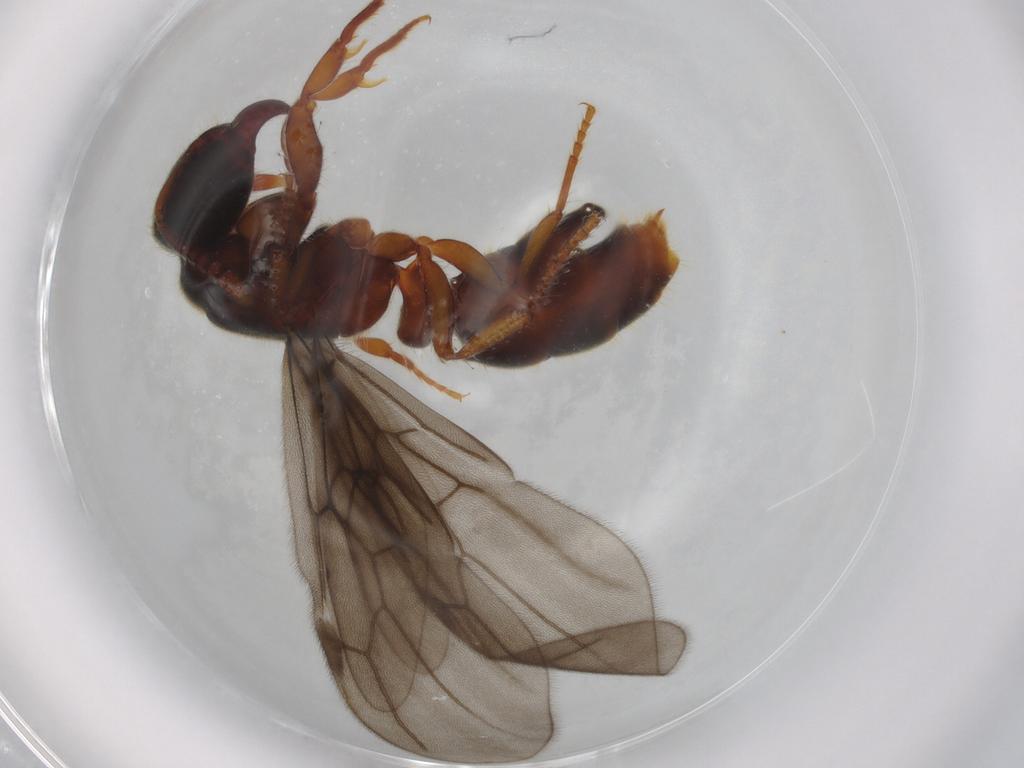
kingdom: Animalia
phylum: Arthropoda
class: Insecta
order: Hymenoptera
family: Formicidae
